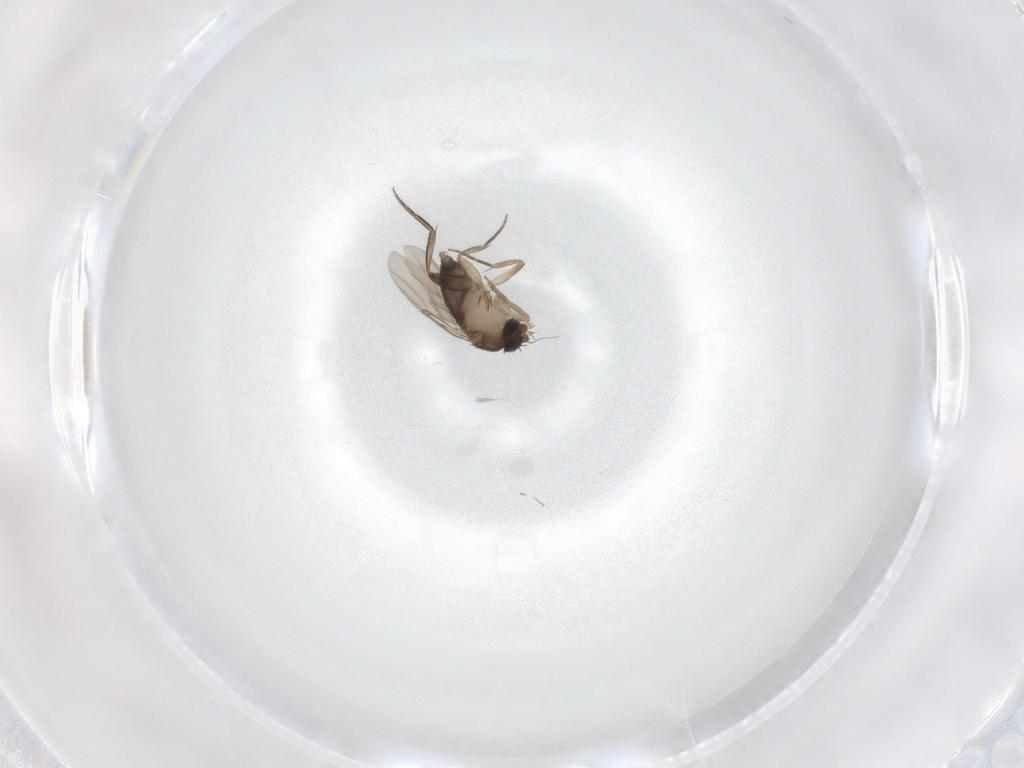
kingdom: Animalia
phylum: Arthropoda
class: Insecta
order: Diptera
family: Phoridae
